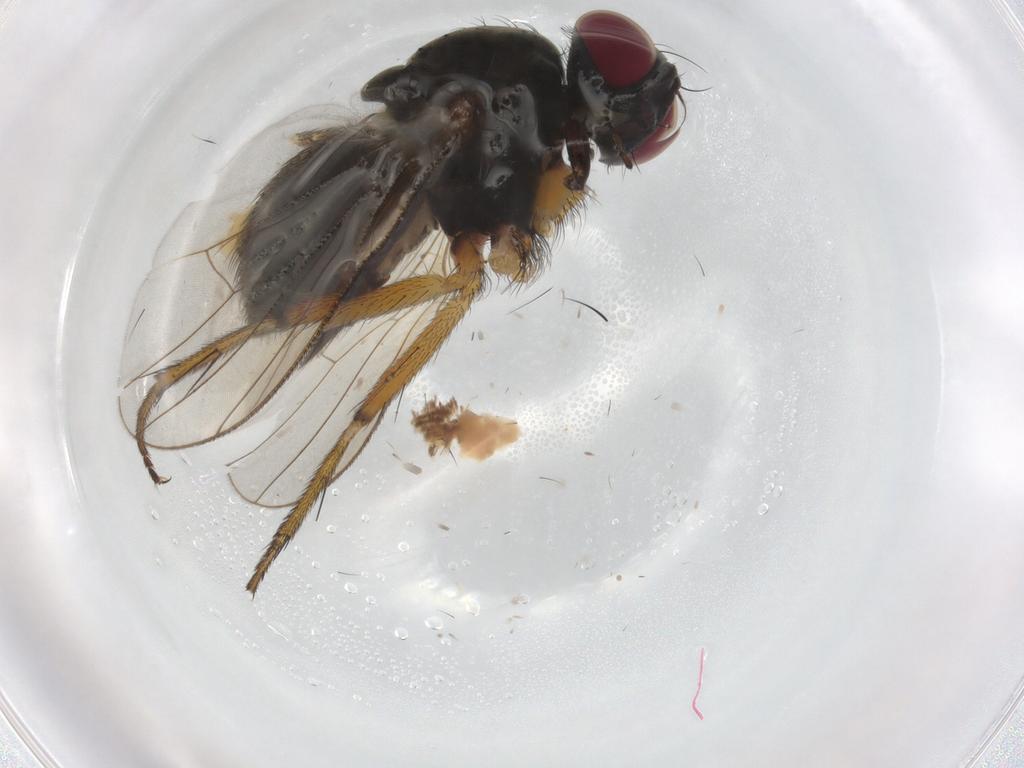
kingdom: Animalia
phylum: Arthropoda
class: Insecta
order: Diptera
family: Muscidae
